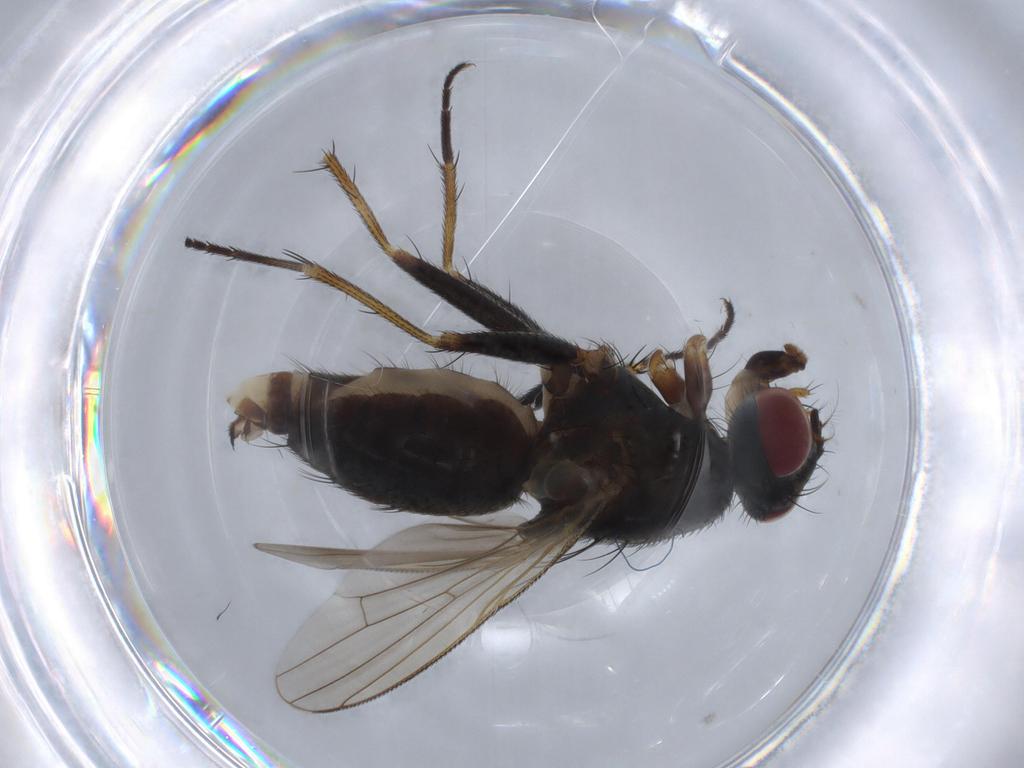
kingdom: Animalia
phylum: Arthropoda
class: Insecta
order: Diptera
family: Muscidae
